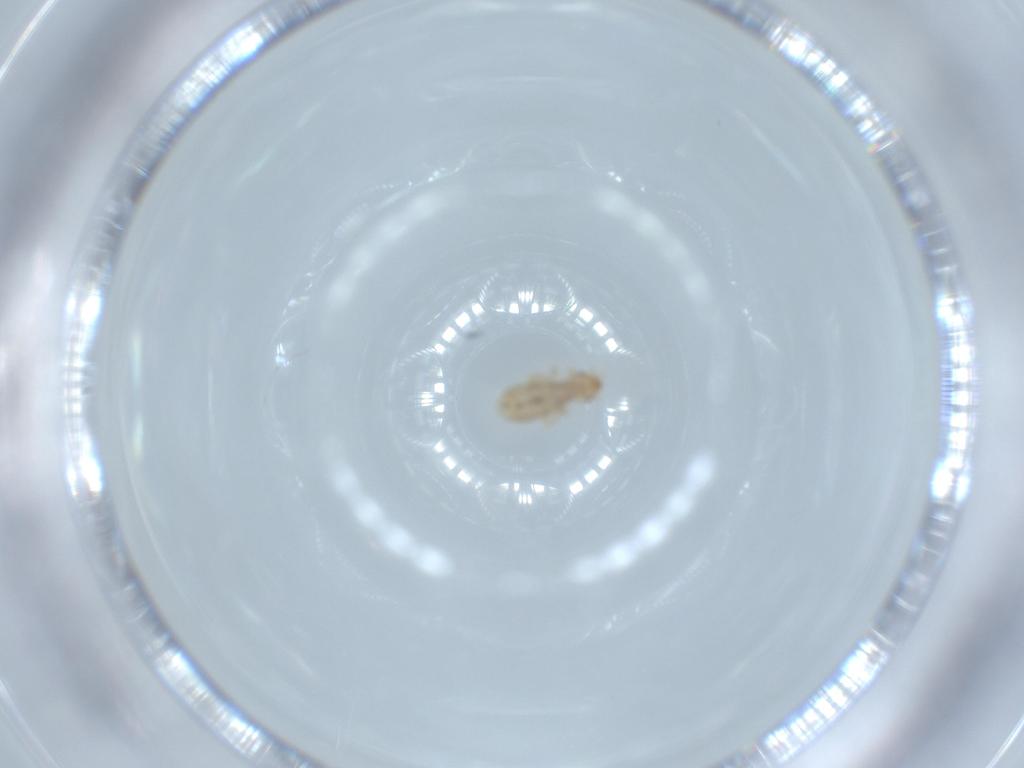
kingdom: Animalia
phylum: Arthropoda
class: Insecta
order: Psocodea
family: Liposcelididae
